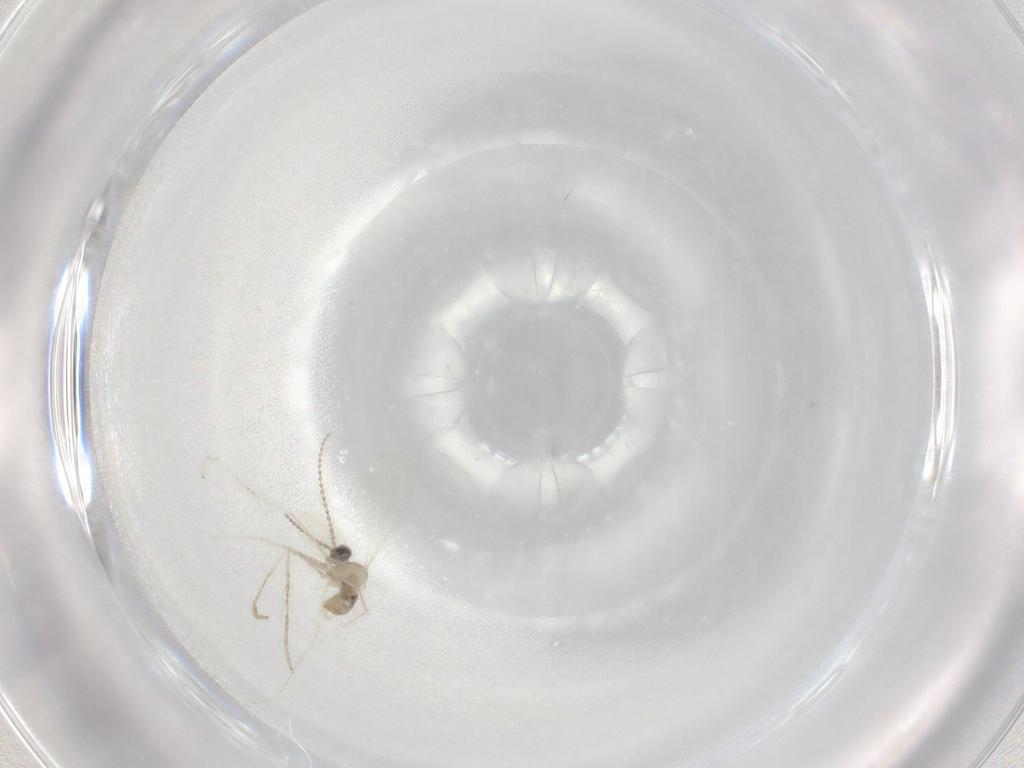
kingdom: Animalia
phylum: Arthropoda
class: Insecta
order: Diptera
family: Cecidomyiidae
